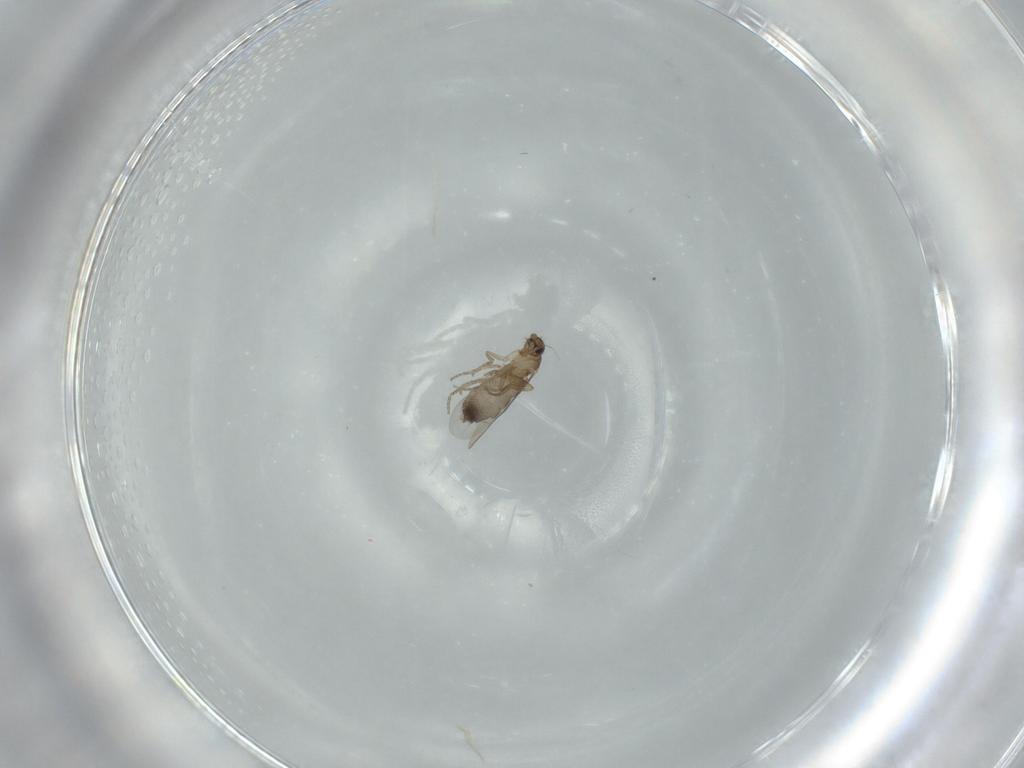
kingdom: Animalia
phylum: Arthropoda
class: Insecta
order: Diptera
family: Phoridae
